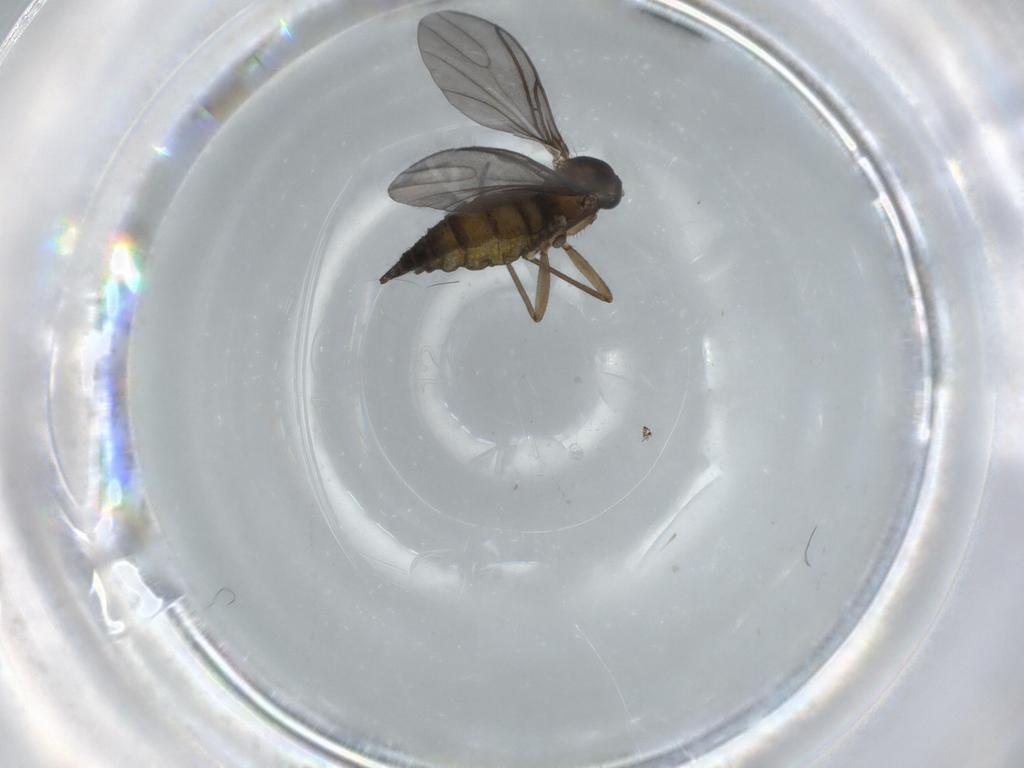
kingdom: Animalia
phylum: Arthropoda
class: Insecta
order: Diptera
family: Sciaridae
